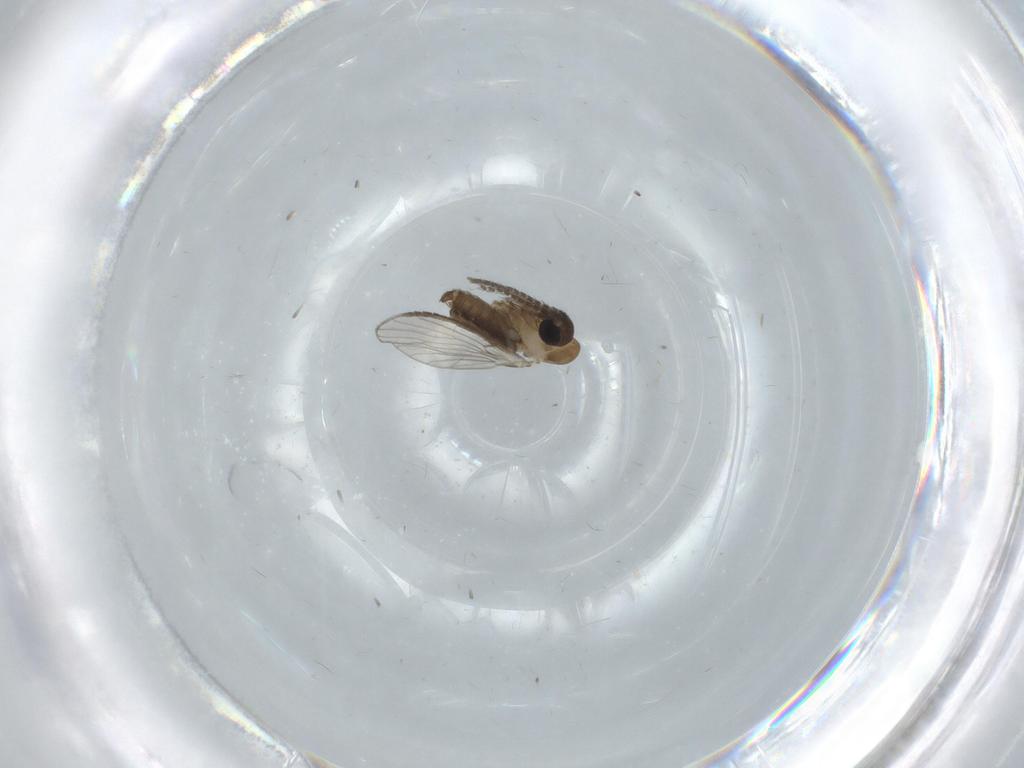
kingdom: Animalia
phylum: Arthropoda
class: Insecta
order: Diptera
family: Psychodidae
